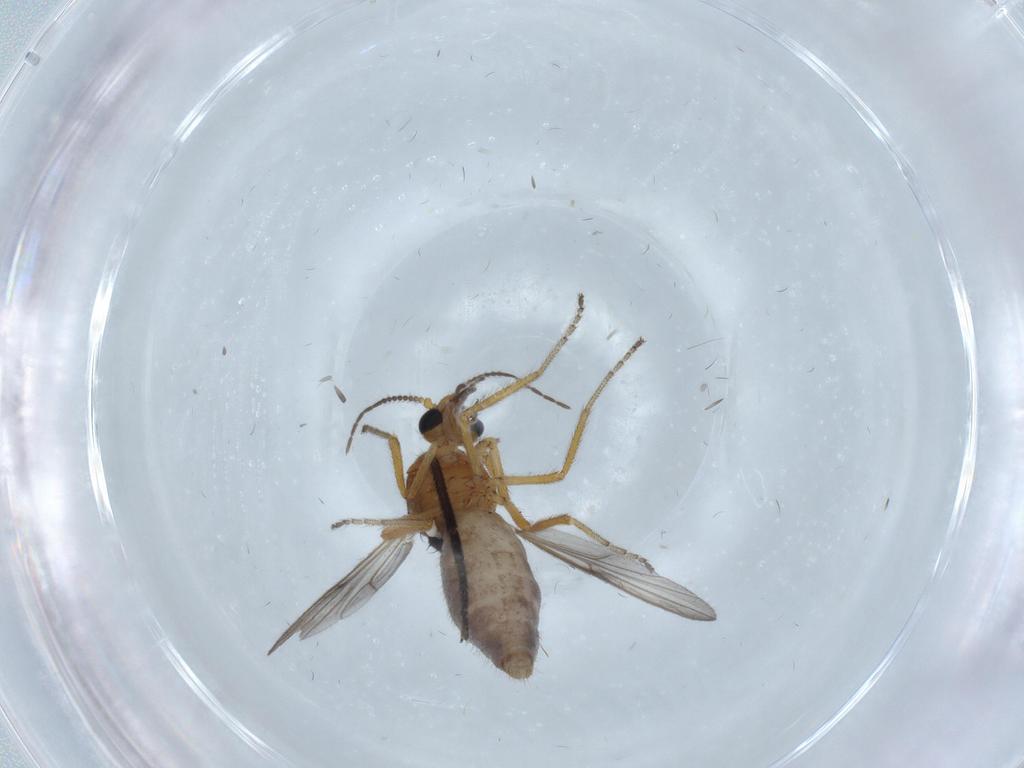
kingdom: Animalia
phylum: Arthropoda
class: Insecta
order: Diptera
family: Ceratopogonidae
